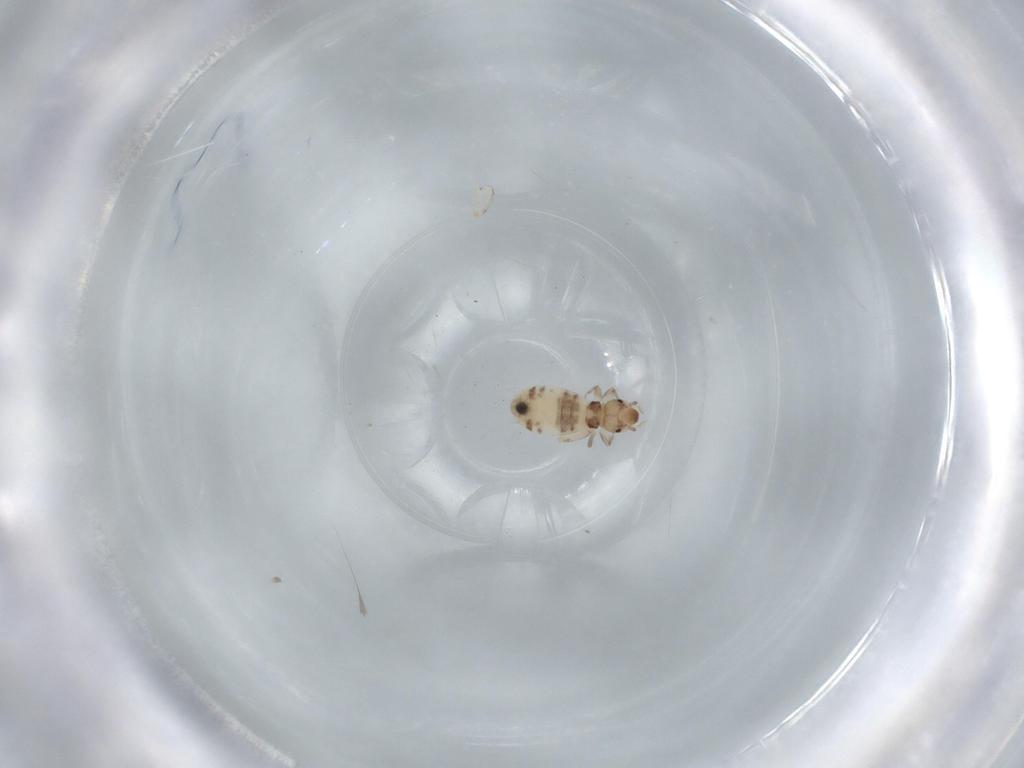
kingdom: Animalia
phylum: Arthropoda
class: Insecta
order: Psocodea
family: Liposcelididae
